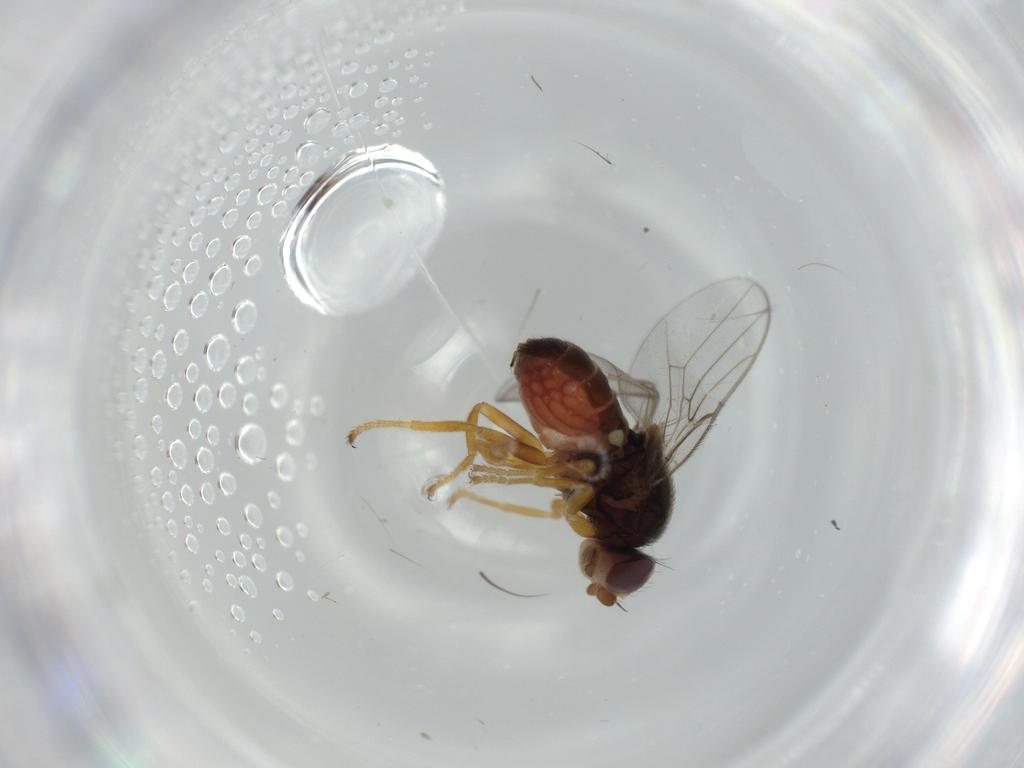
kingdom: Animalia
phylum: Arthropoda
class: Insecta
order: Diptera
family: Chloropidae
